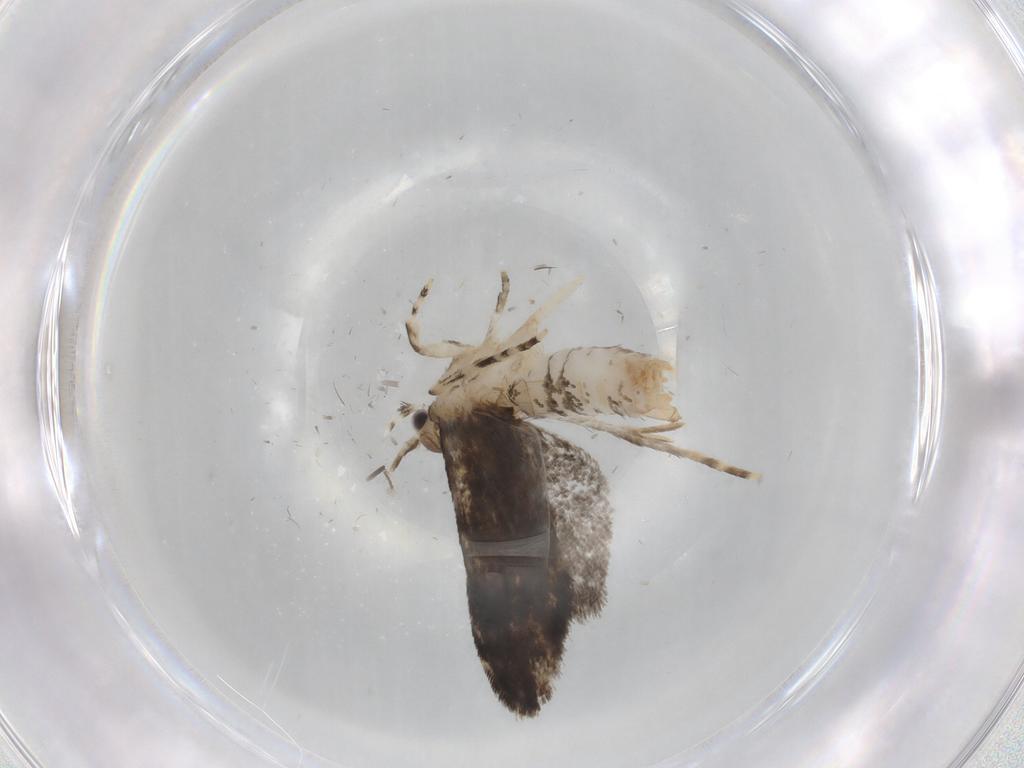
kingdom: Animalia
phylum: Arthropoda
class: Insecta
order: Lepidoptera
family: Tineidae
